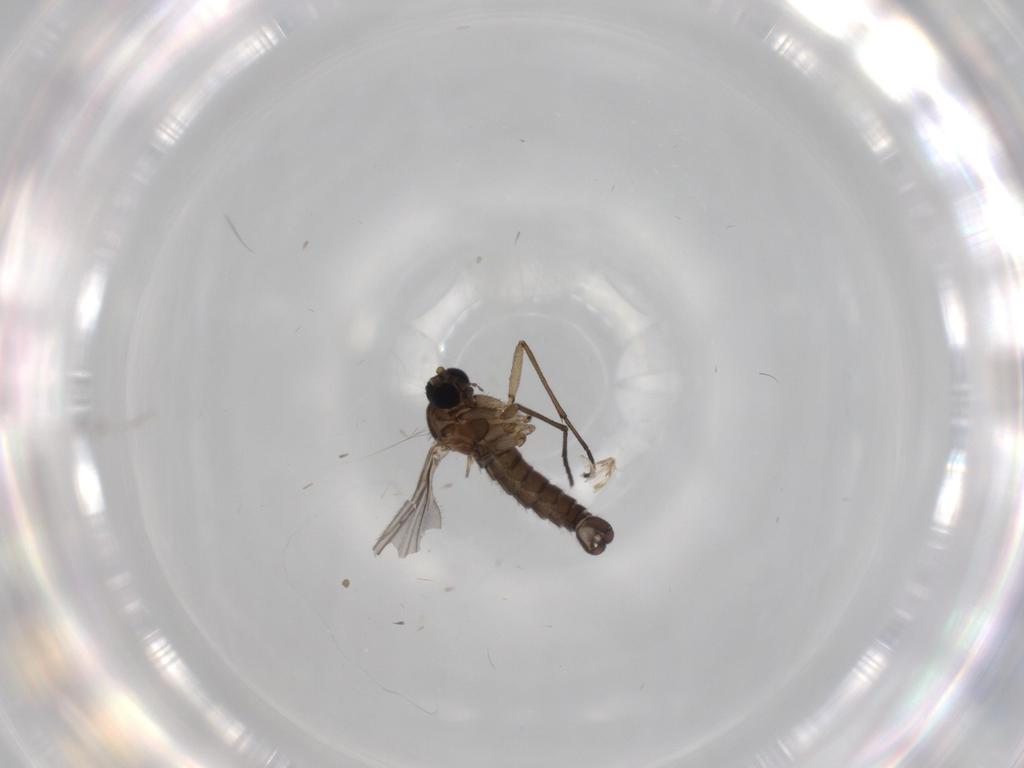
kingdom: Animalia
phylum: Arthropoda
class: Insecta
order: Diptera
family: Sciaridae
